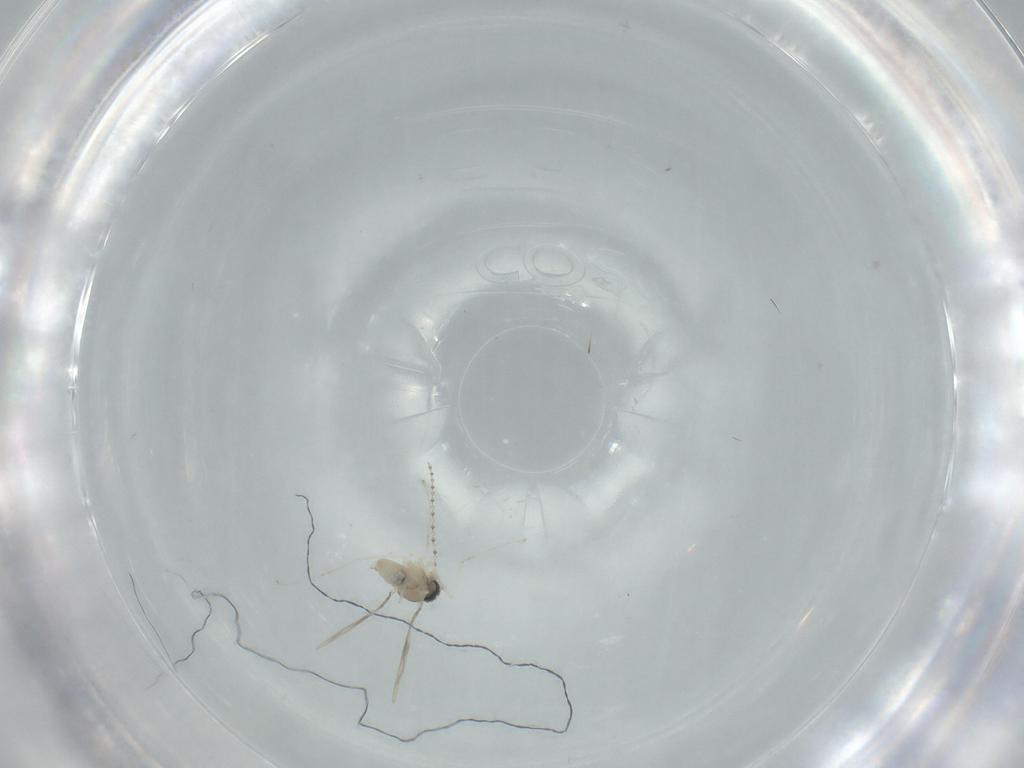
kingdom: Animalia
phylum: Arthropoda
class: Insecta
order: Diptera
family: Cecidomyiidae
